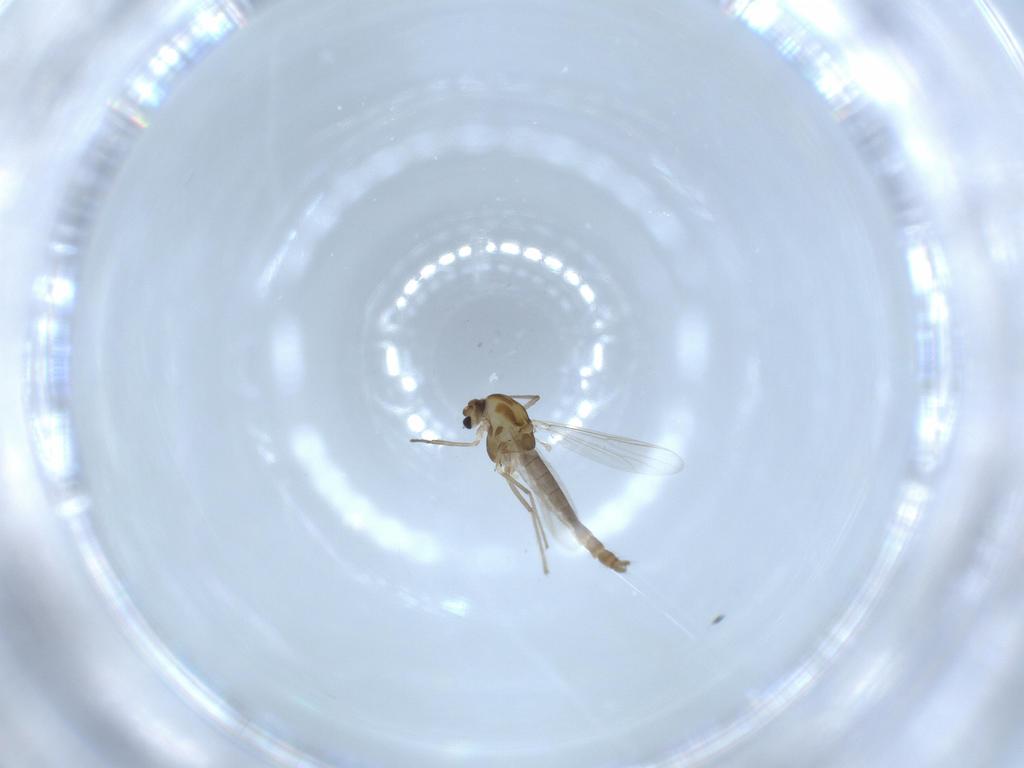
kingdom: Animalia
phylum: Arthropoda
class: Insecta
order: Diptera
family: Chironomidae
